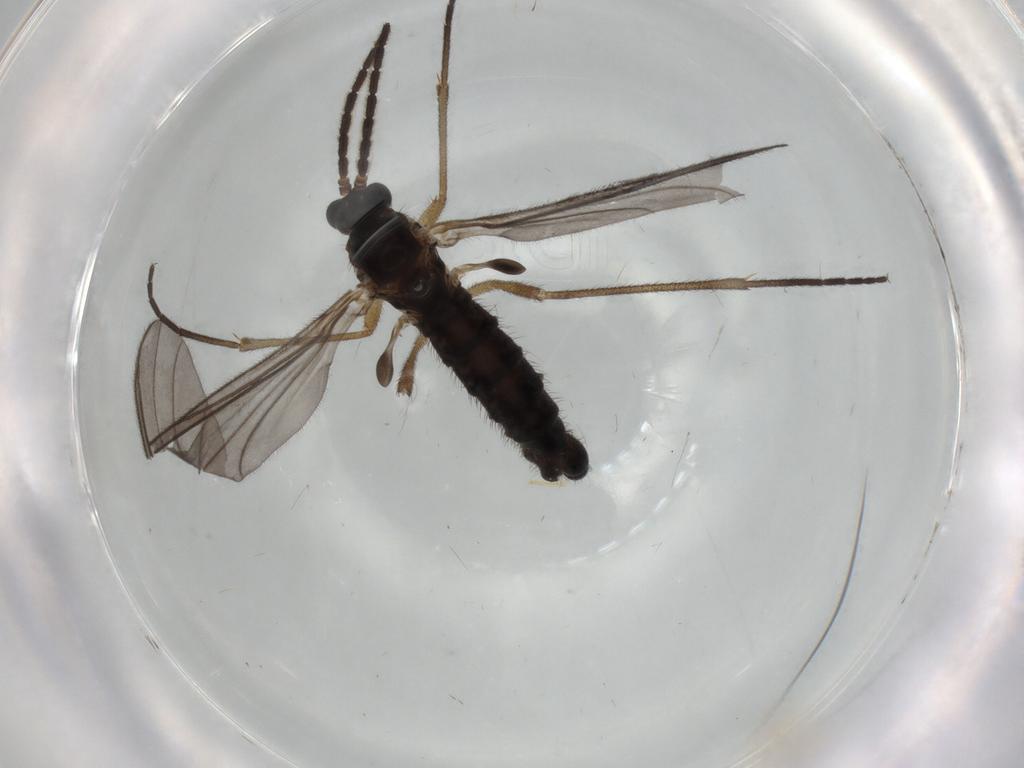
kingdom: Animalia
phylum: Arthropoda
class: Insecta
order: Diptera
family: Sciaridae
